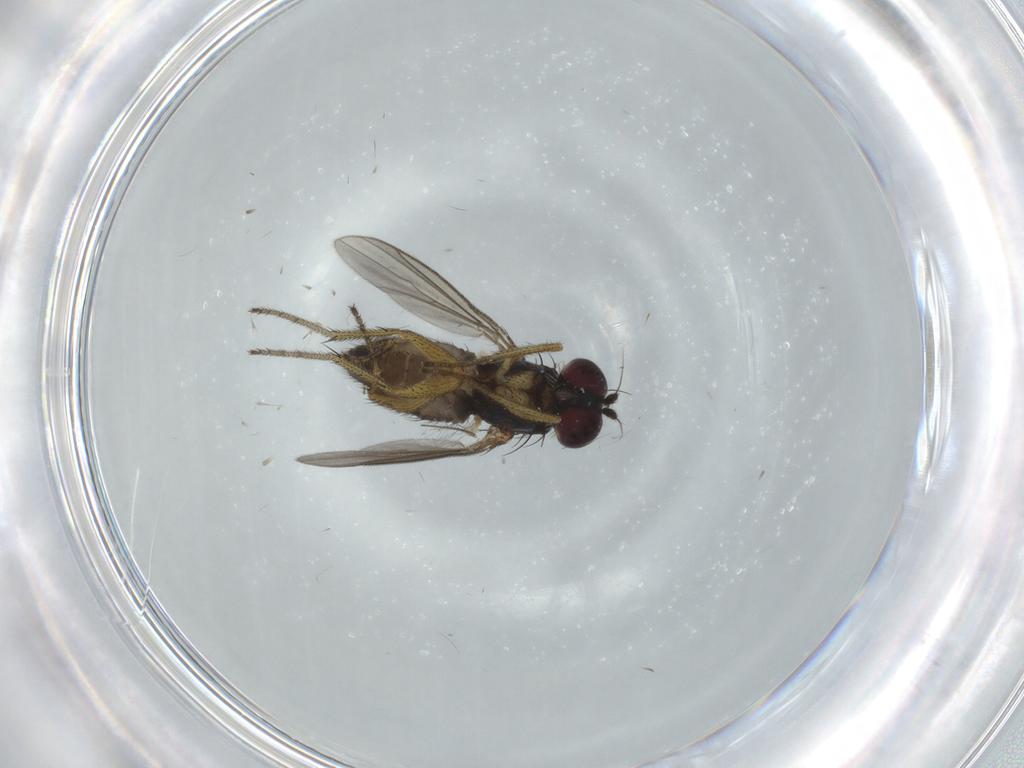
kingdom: Animalia
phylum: Arthropoda
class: Insecta
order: Diptera
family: Dolichopodidae
